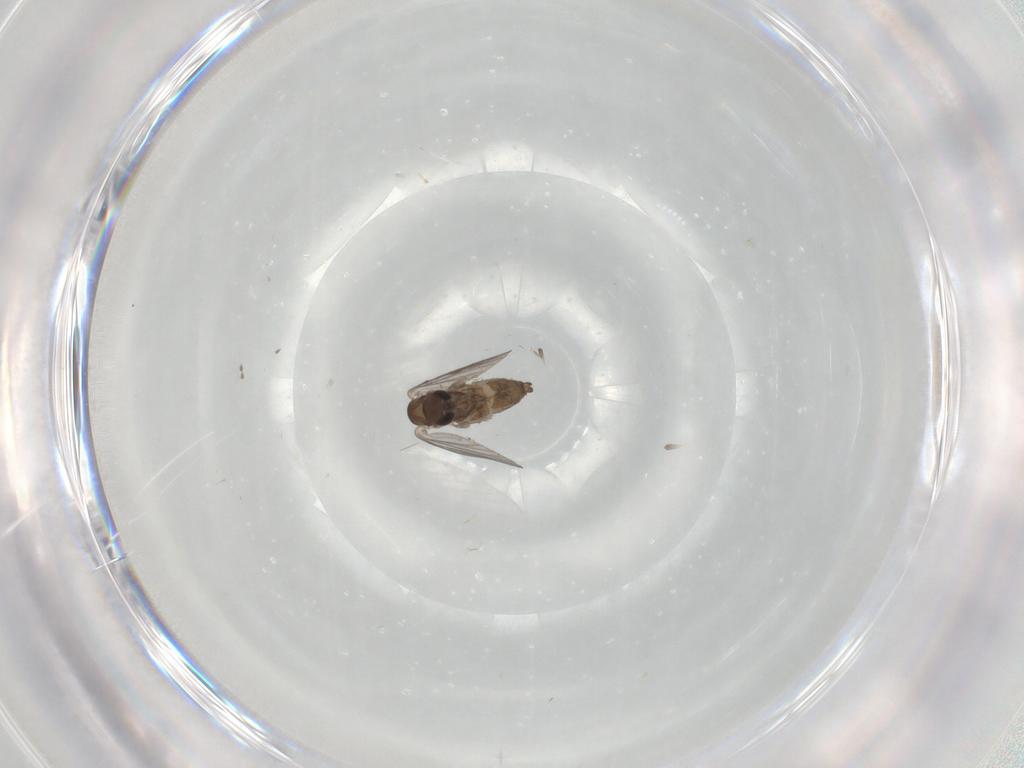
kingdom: Animalia
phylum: Arthropoda
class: Insecta
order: Diptera
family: Stratiomyidae
